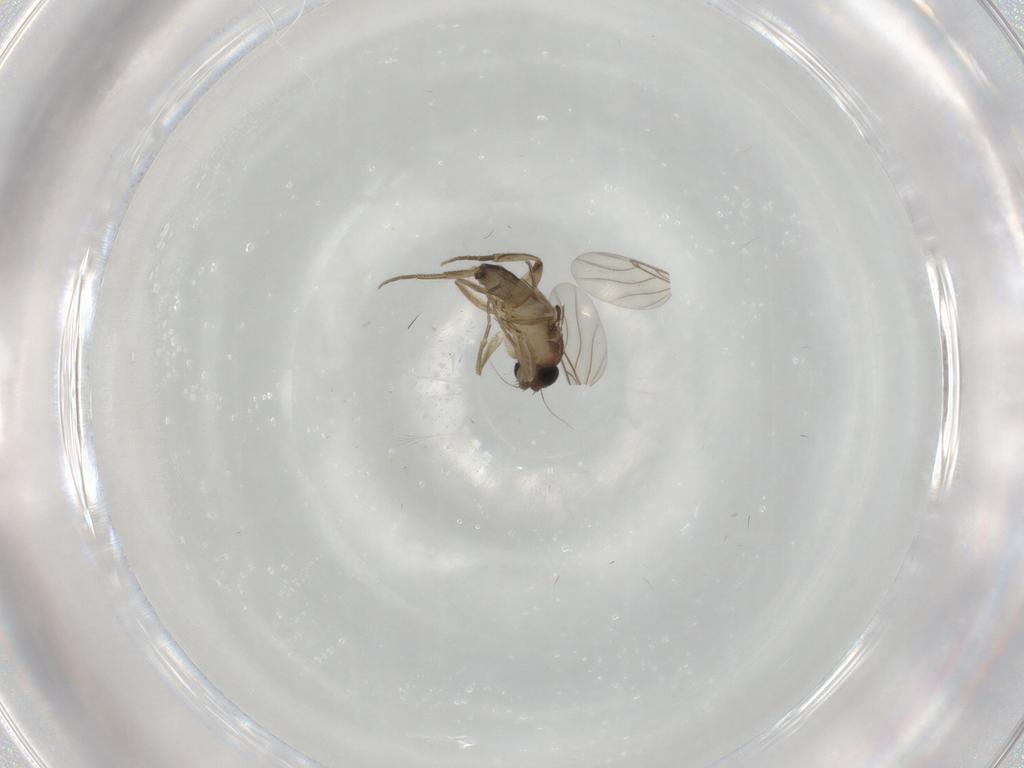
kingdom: Animalia
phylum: Arthropoda
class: Insecta
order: Diptera
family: Phoridae
